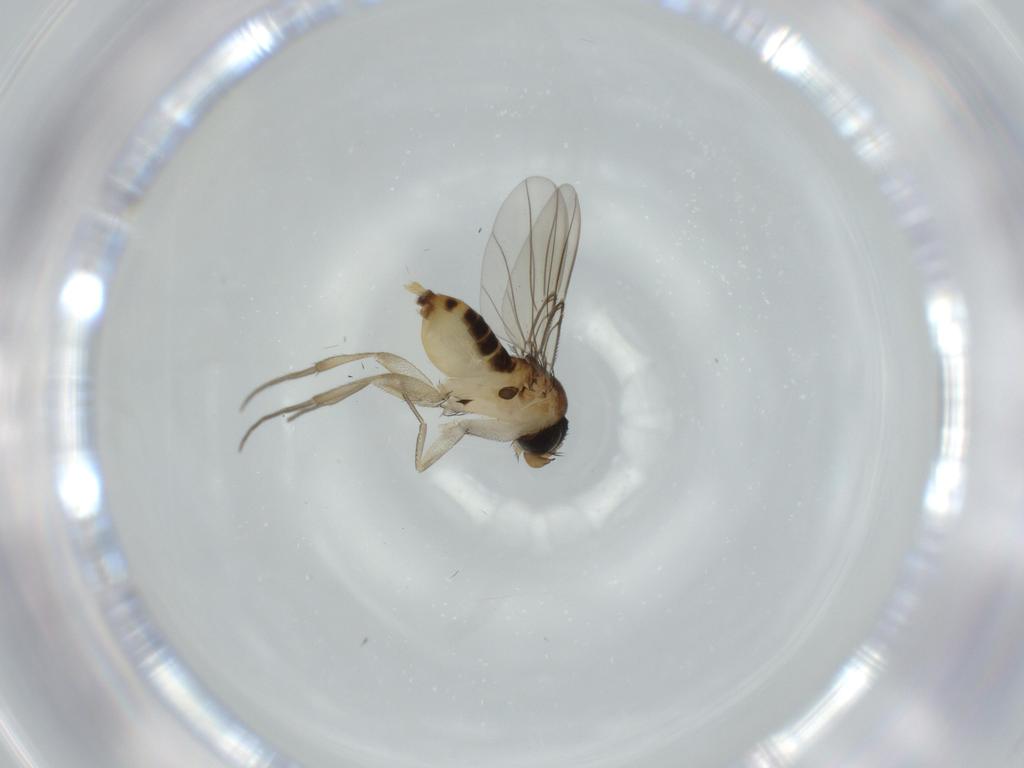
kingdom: Animalia
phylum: Arthropoda
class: Insecta
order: Diptera
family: Phoridae
